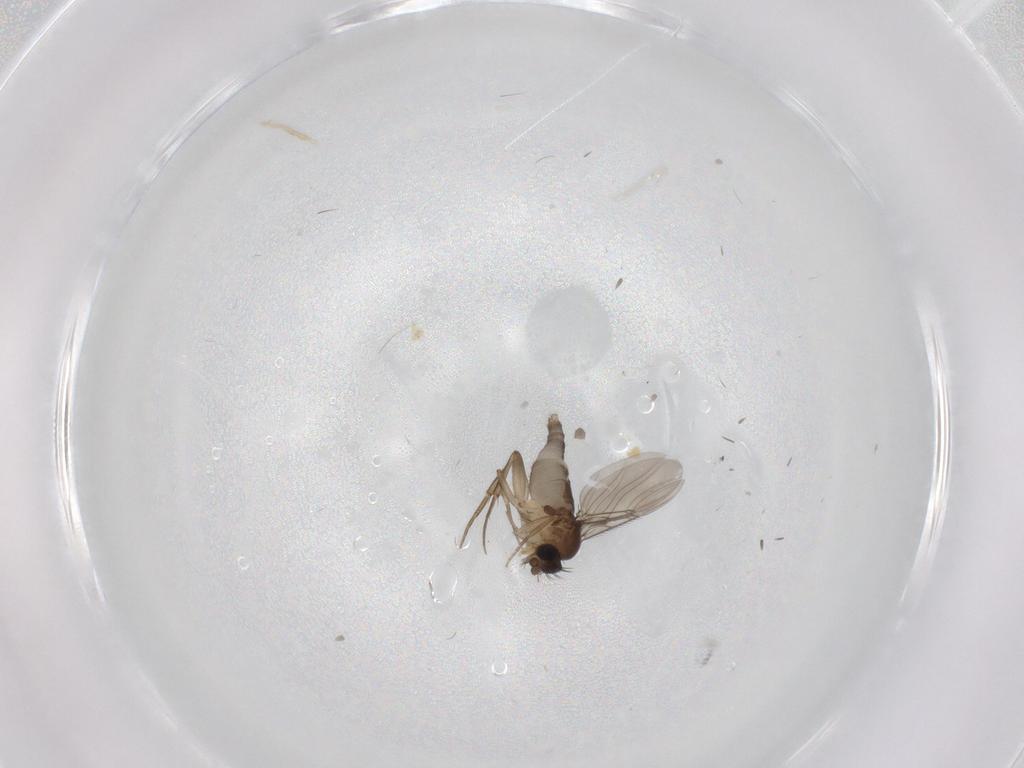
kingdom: Animalia
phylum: Arthropoda
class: Insecta
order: Diptera
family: Phoridae
